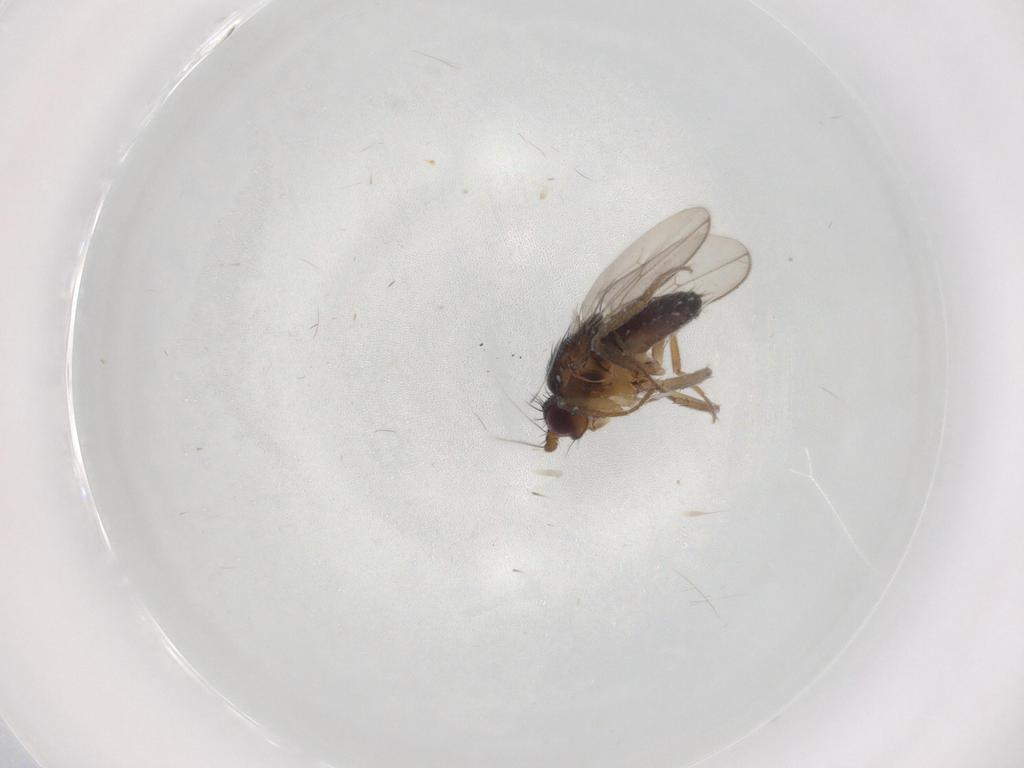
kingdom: Animalia
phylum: Arthropoda
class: Insecta
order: Diptera
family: Sphaeroceridae
